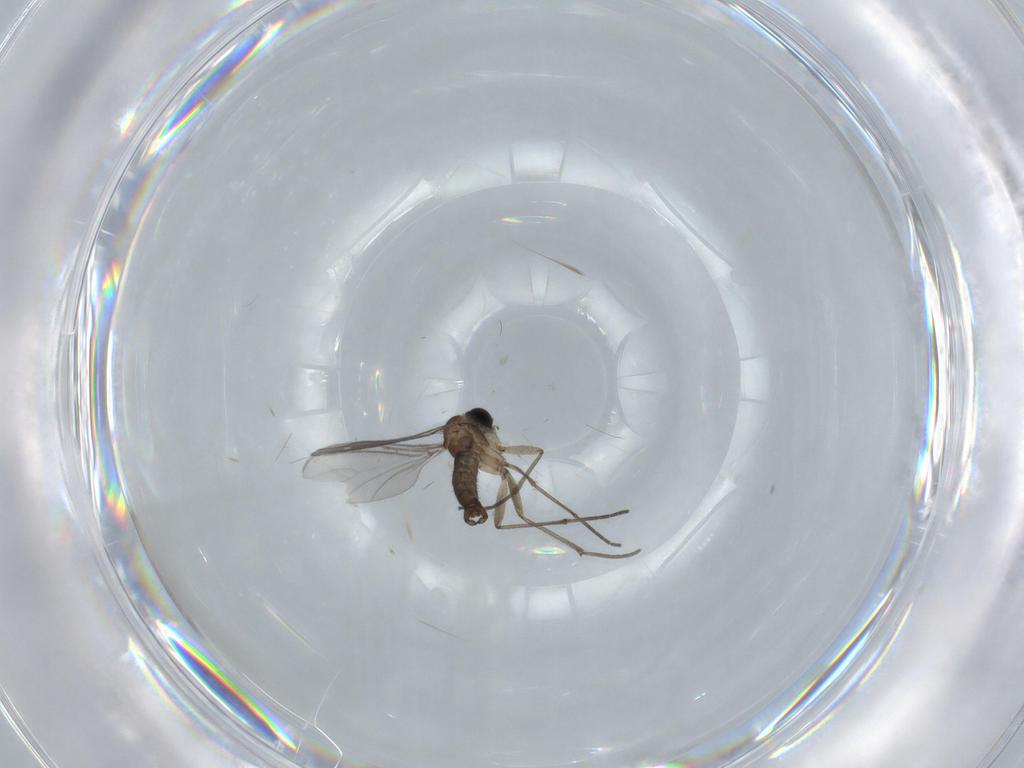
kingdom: Animalia
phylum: Arthropoda
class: Insecta
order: Diptera
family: Sciaridae
